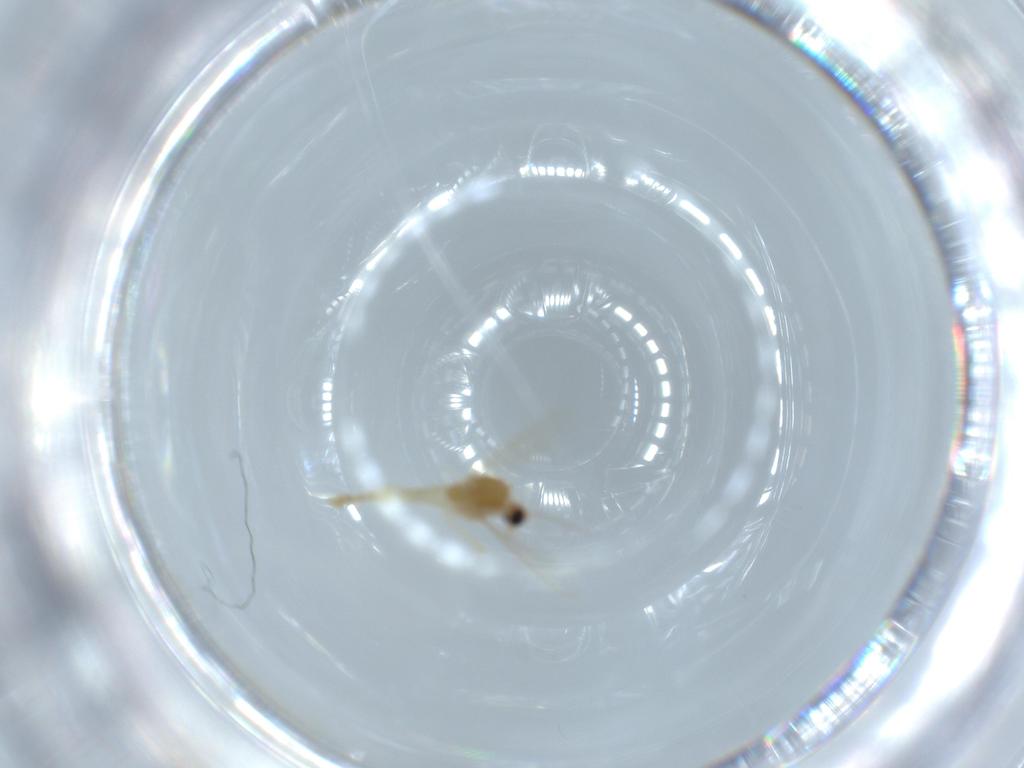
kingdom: Animalia
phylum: Arthropoda
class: Insecta
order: Diptera
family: Chironomidae
